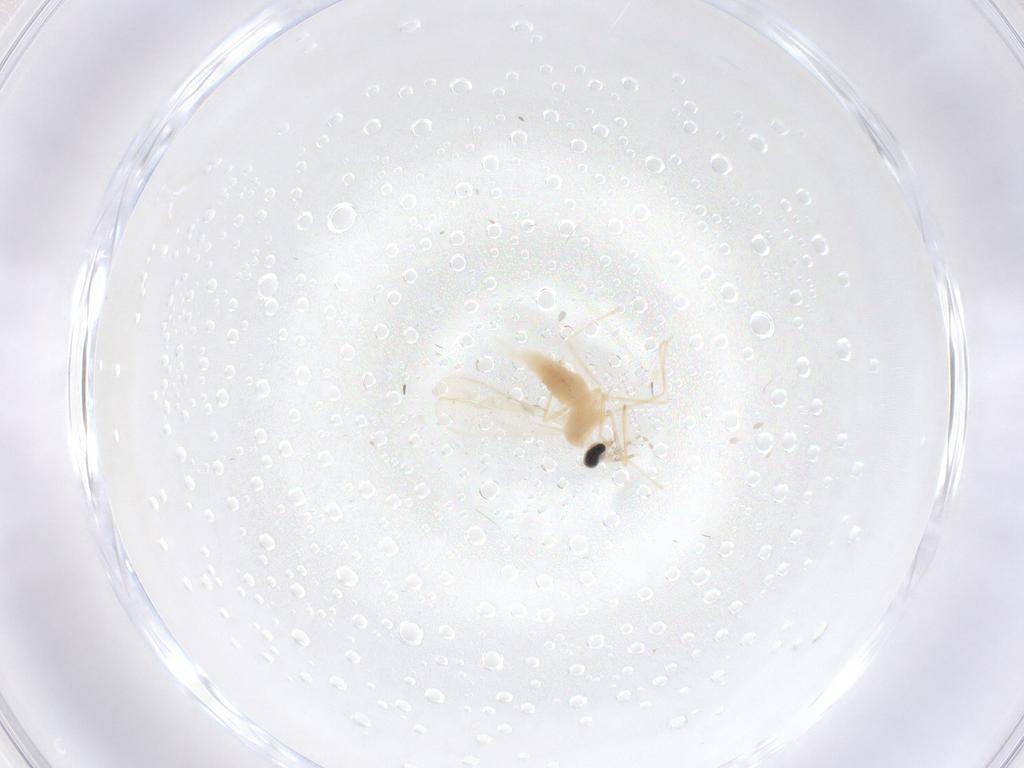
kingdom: Animalia
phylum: Arthropoda
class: Insecta
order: Diptera
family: Cecidomyiidae
